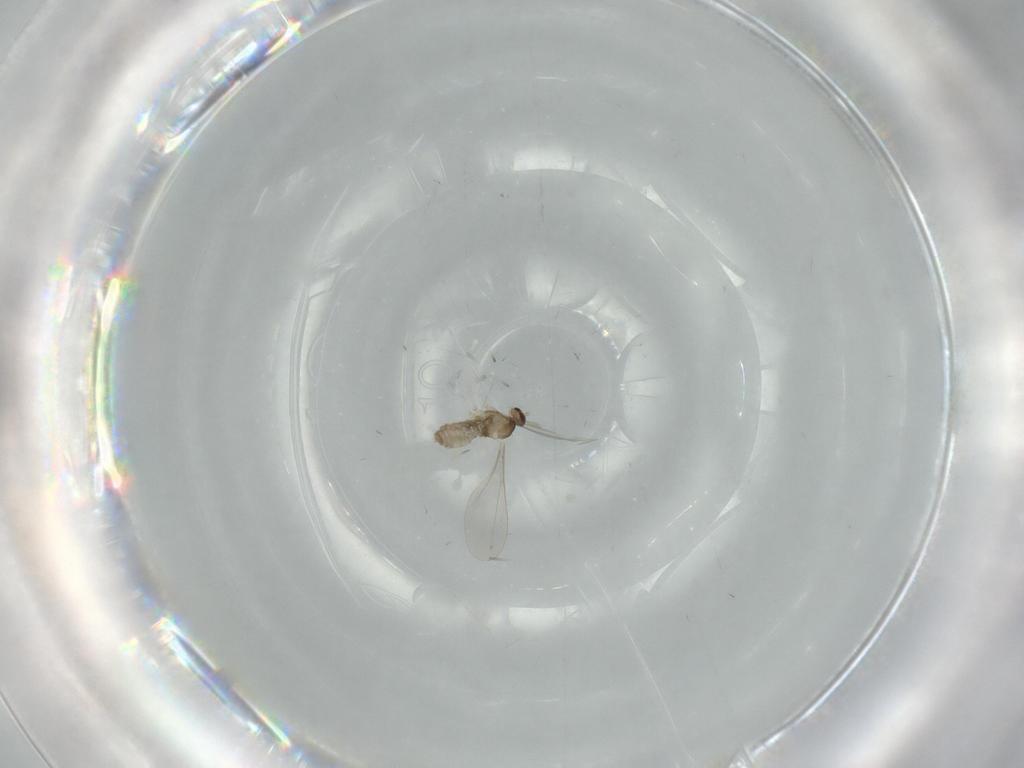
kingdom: Animalia
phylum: Arthropoda
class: Insecta
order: Diptera
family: Cecidomyiidae
